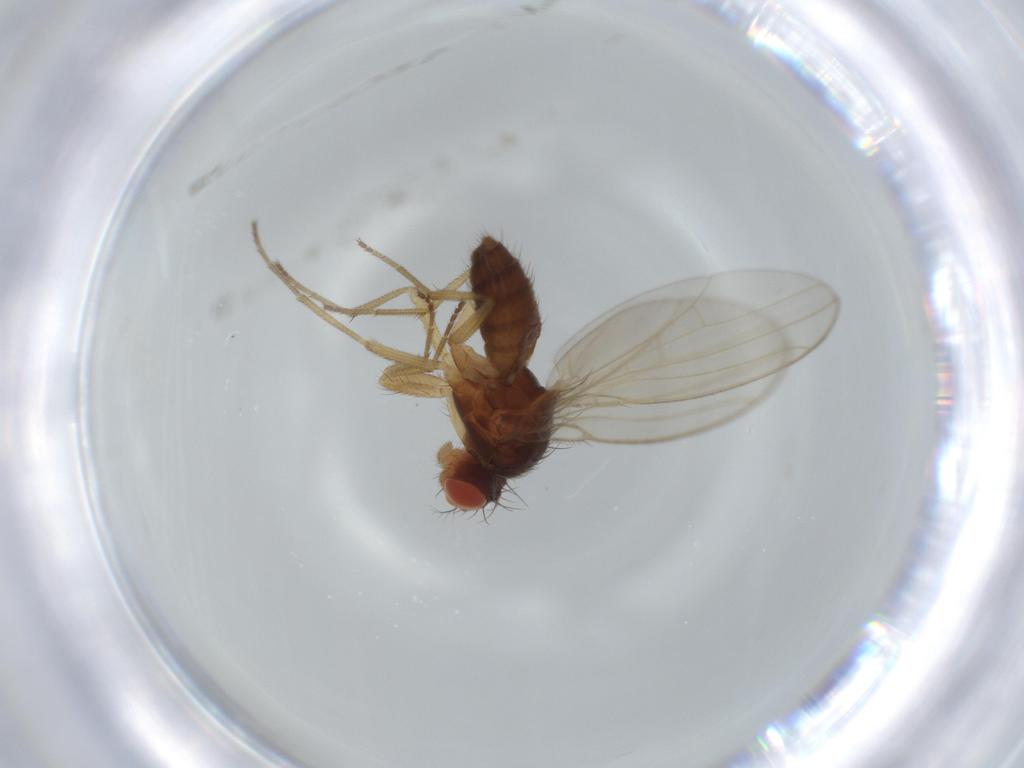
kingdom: Animalia
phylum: Arthropoda
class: Insecta
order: Diptera
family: Drosophilidae
